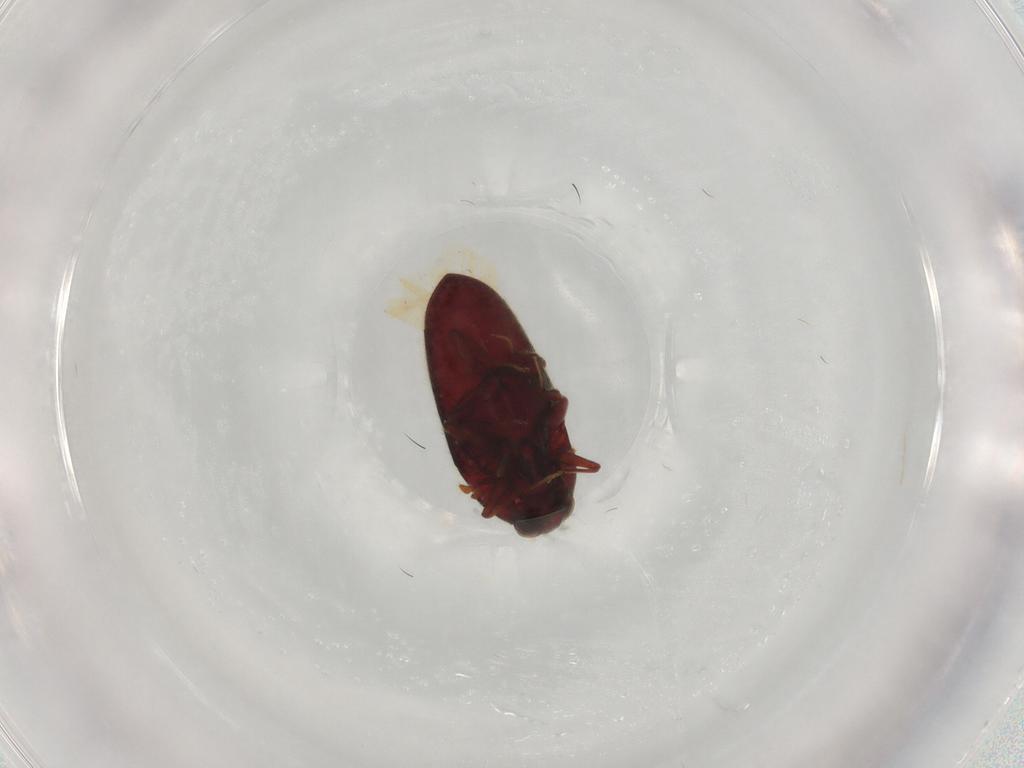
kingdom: Animalia
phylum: Arthropoda
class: Insecta
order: Coleoptera
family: Throscidae
